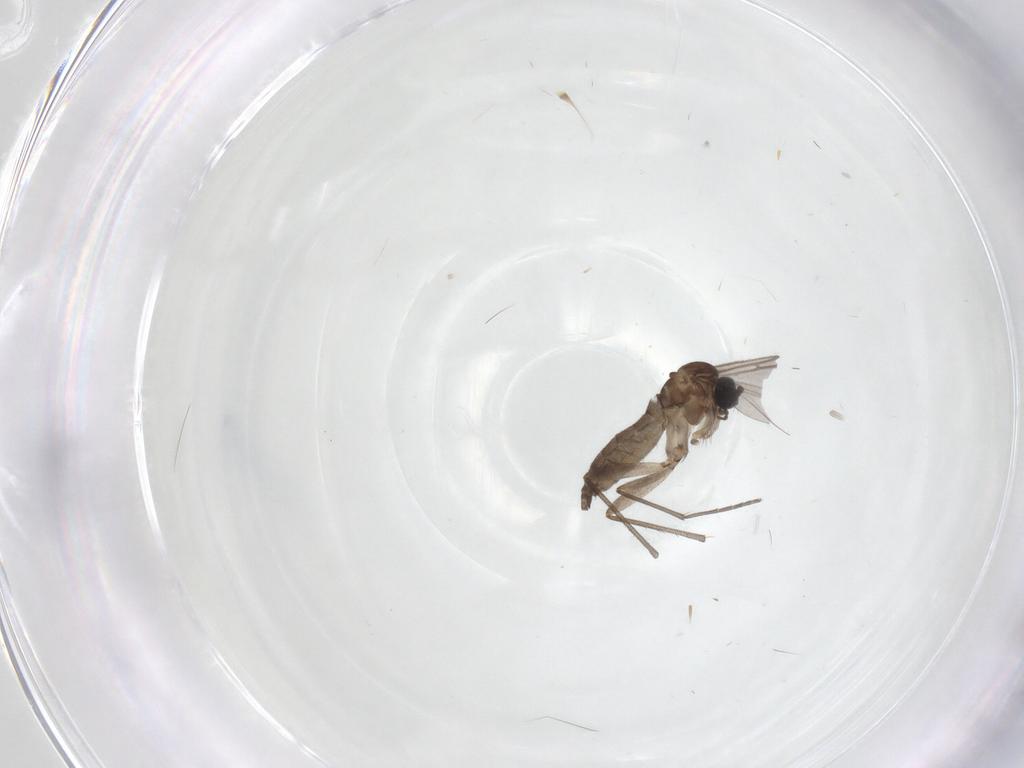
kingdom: Animalia
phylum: Arthropoda
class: Insecta
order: Diptera
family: Sciaridae
